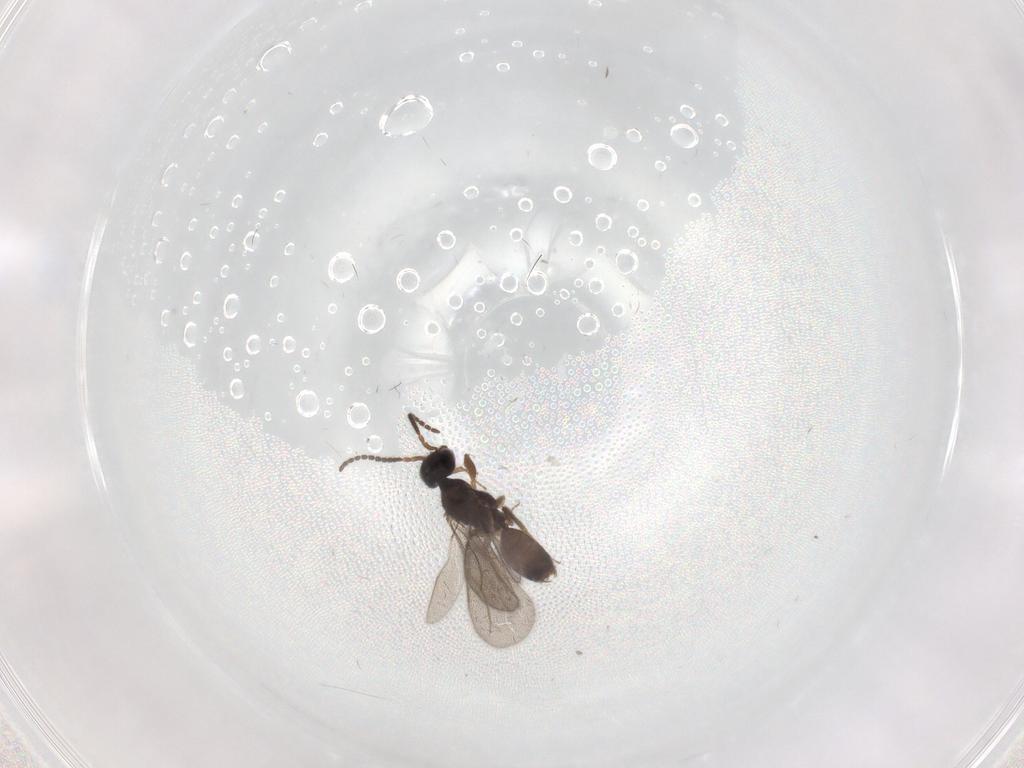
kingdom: Animalia
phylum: Arthropoda
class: Insecta
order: Hymenoptera
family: Bethylidae
